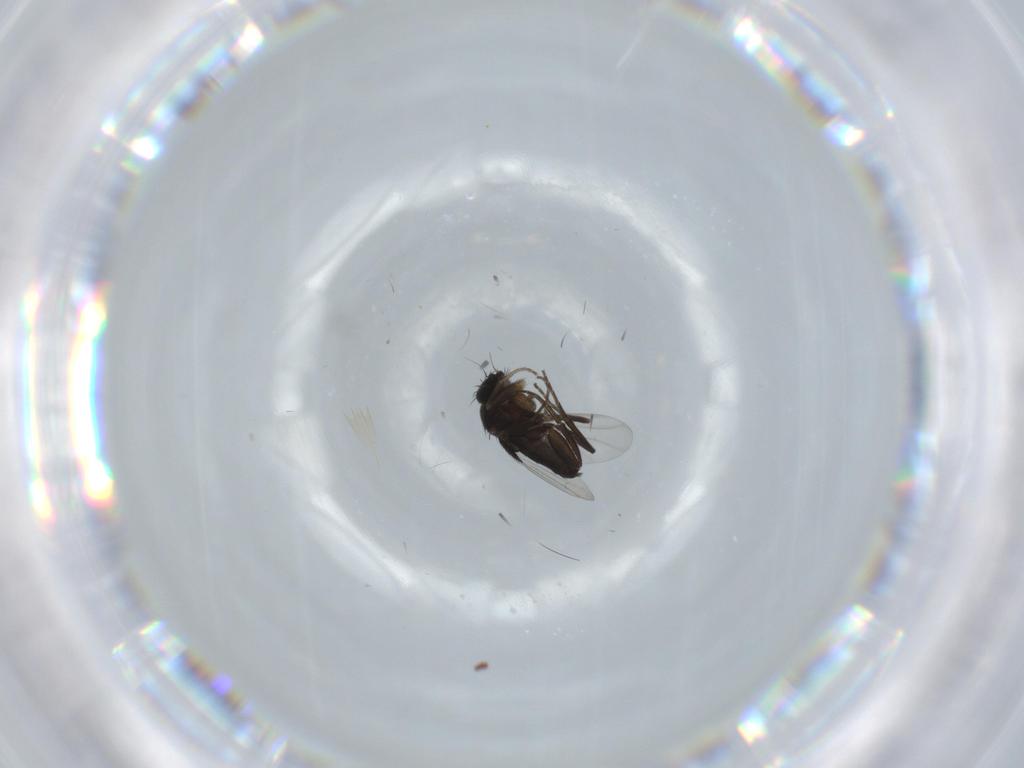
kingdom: Animalia
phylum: Arthropoda
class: Insecta
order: Diptera
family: Phoridae
